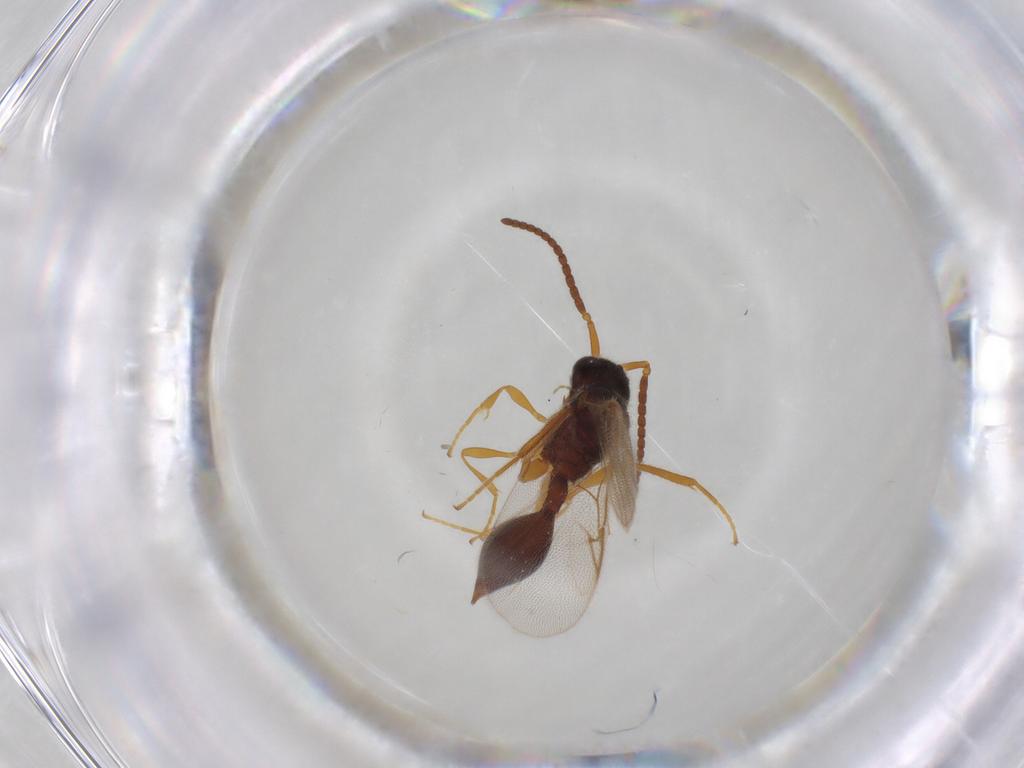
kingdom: Animalia
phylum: Arthropoda
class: Insecta
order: Hymenoptera
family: Diapriidae
